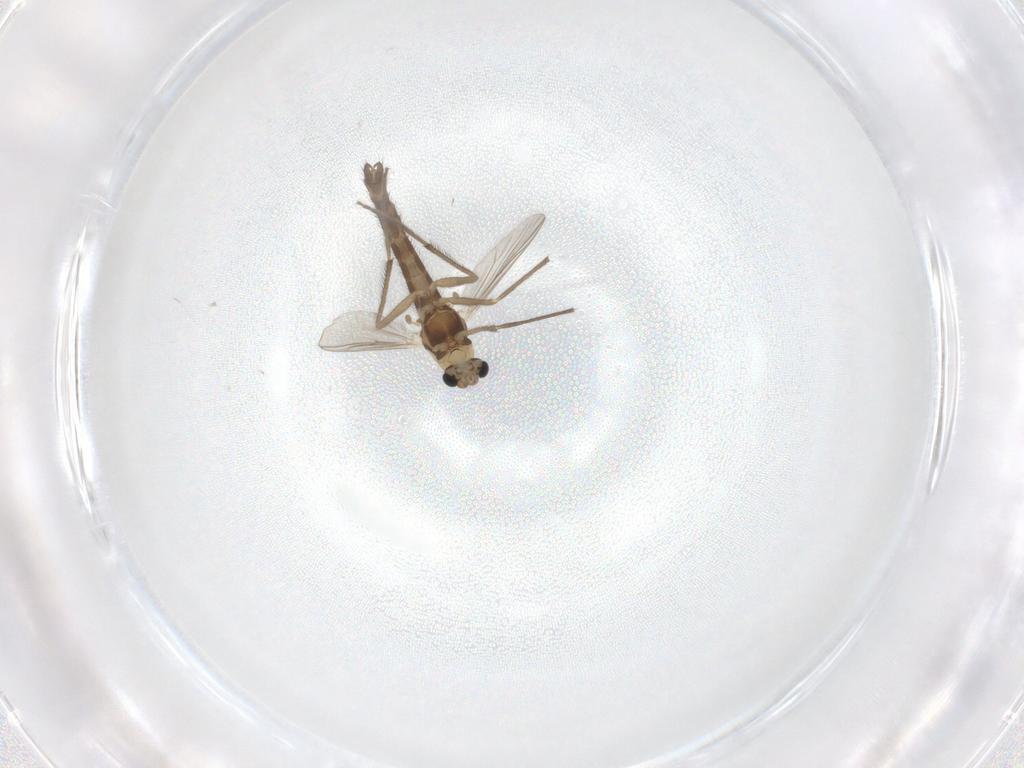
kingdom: Animalia
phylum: Arthropoda
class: Insecta
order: Diptera
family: Chironomidae
